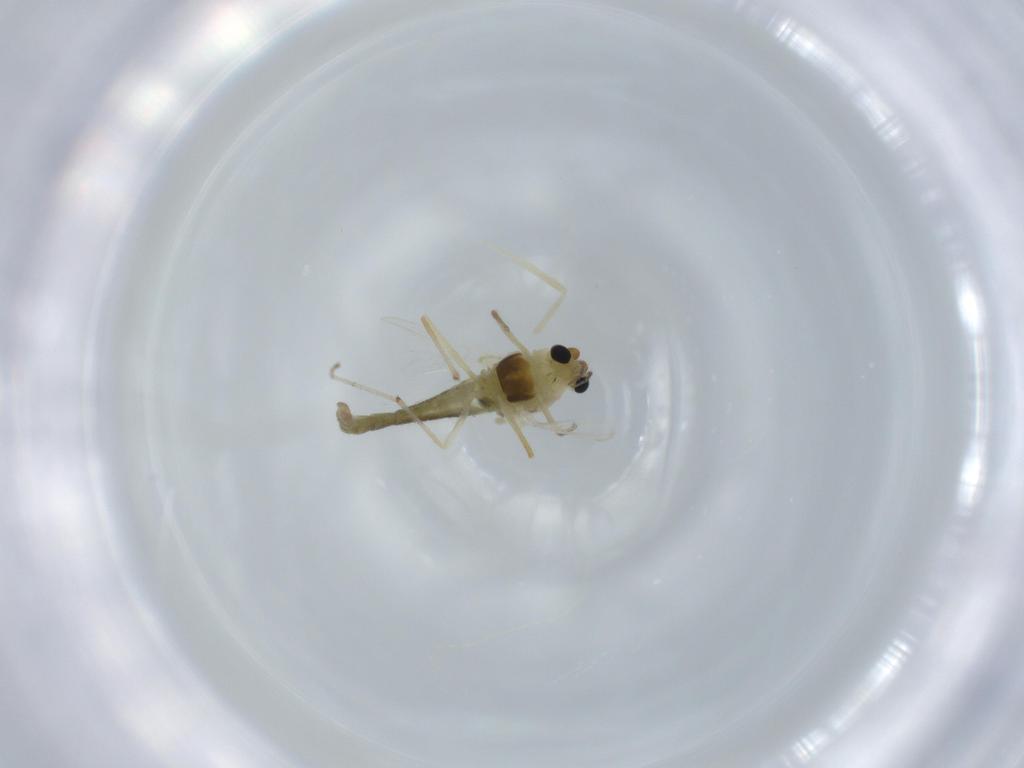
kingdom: Animalia
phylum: Arthropoda
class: Insecta
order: Diptera
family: Chironomidae
